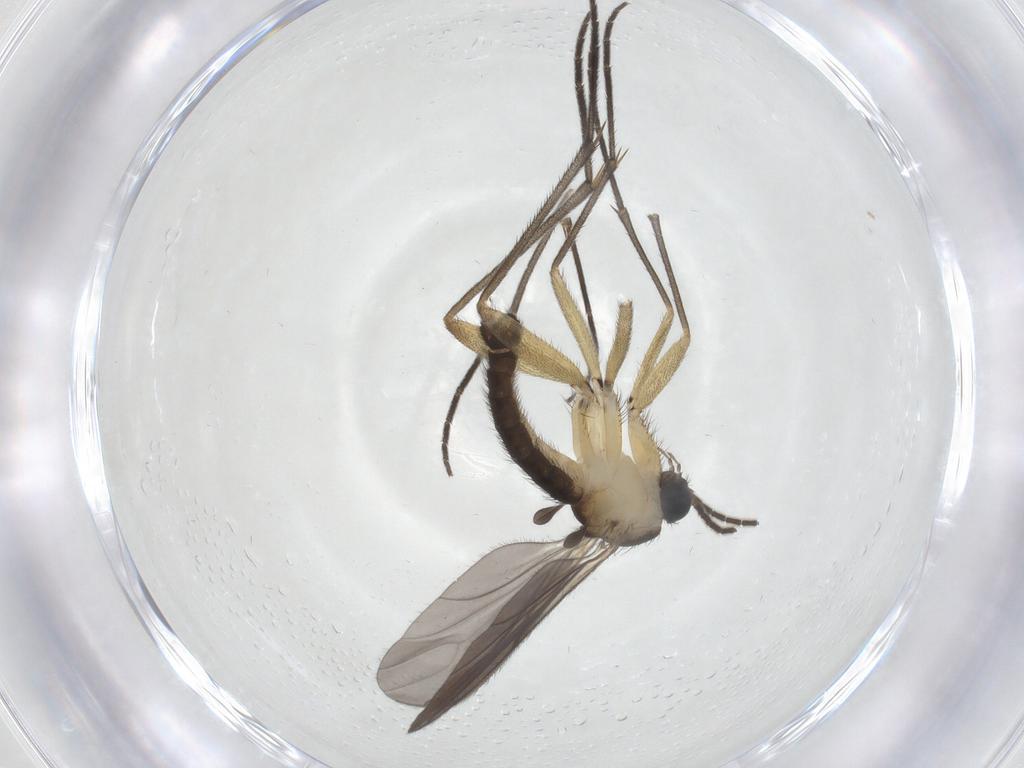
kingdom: Animalia
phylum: Arthropoda
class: Insecta
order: Diptera
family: Sciaridae
